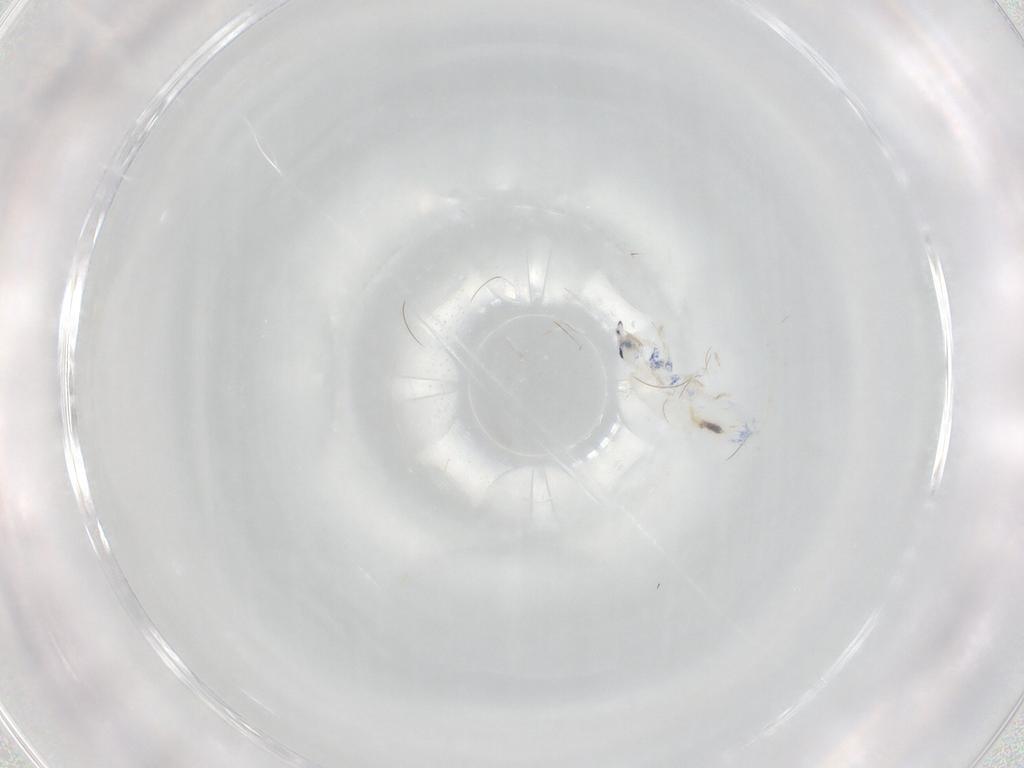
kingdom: Animalia
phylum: Arthropoda
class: Collembola
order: Entomobryomorpha
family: Entomobryidae
